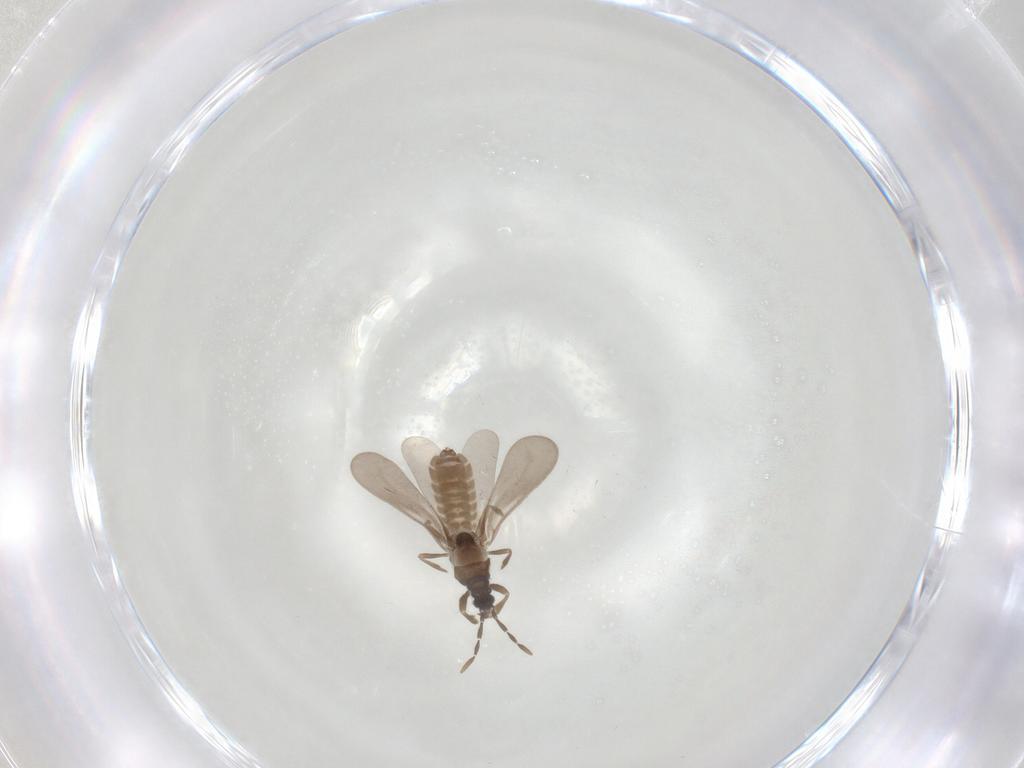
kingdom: Animalia
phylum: Arthropoda
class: Insecta
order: Hemiptera
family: Enicocephalidae
